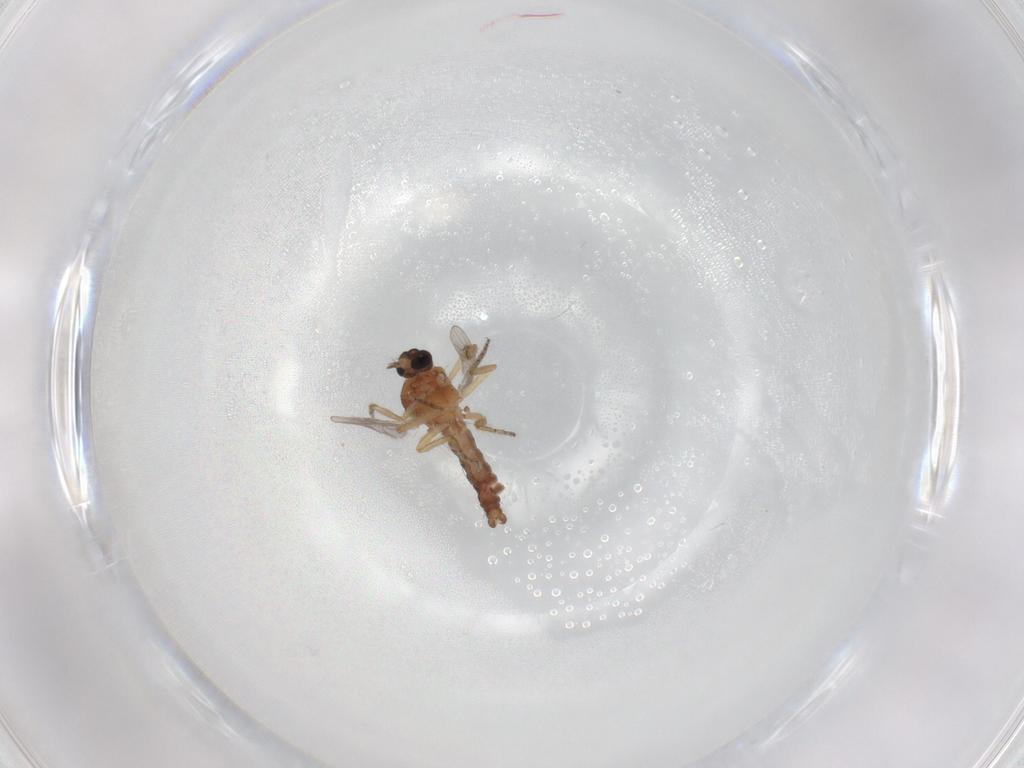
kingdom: Animalia
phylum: Arthropoda
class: Insecta
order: Diptera
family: Ceratopogonidae
